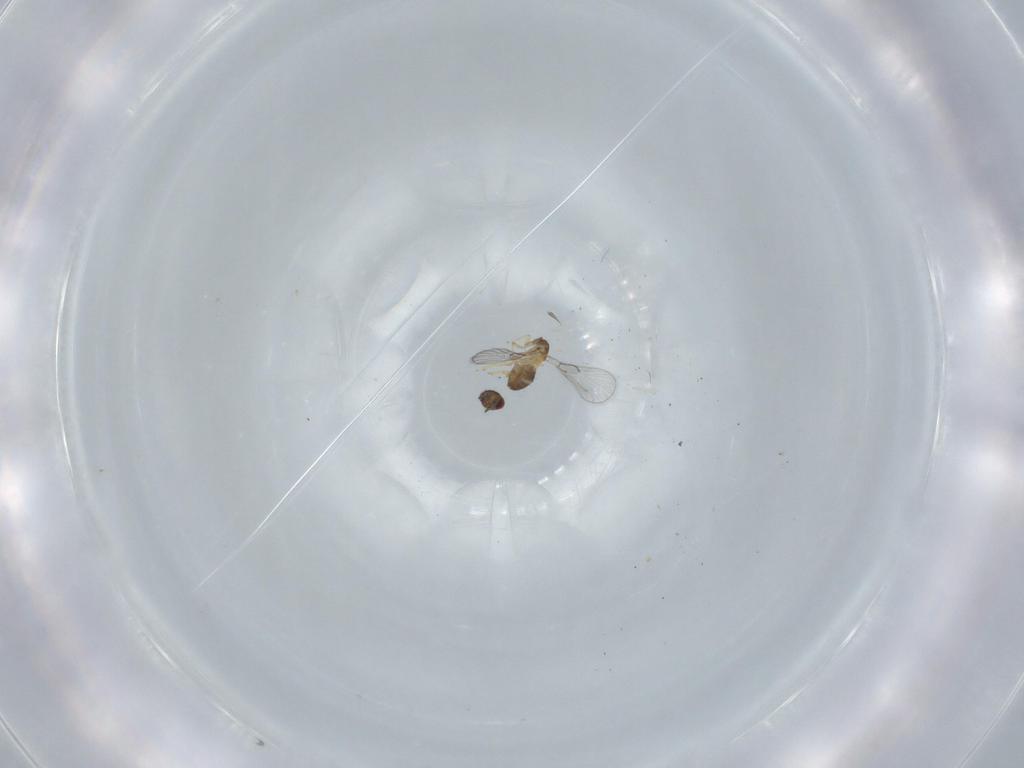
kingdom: Animalia
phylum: Arthropoda
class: Insecta
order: Hymenoptera
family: Trichogrammatidae
